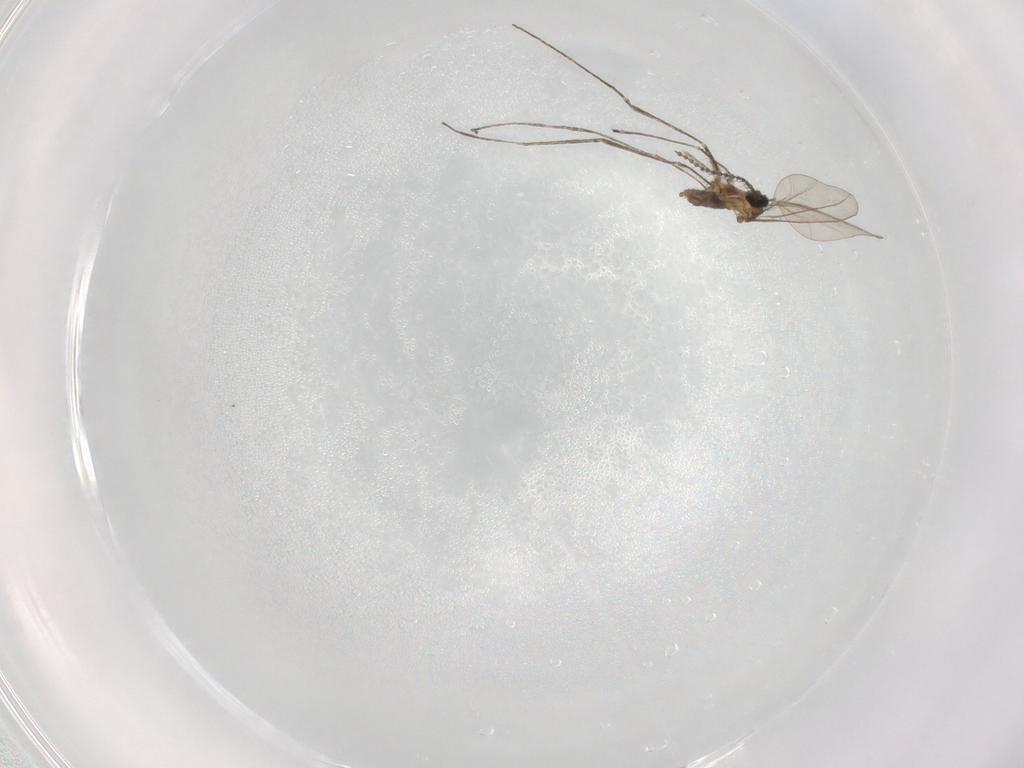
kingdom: Animalia
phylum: Arthropoda
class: Insecta
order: Diptera
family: Cecidomyiidae
